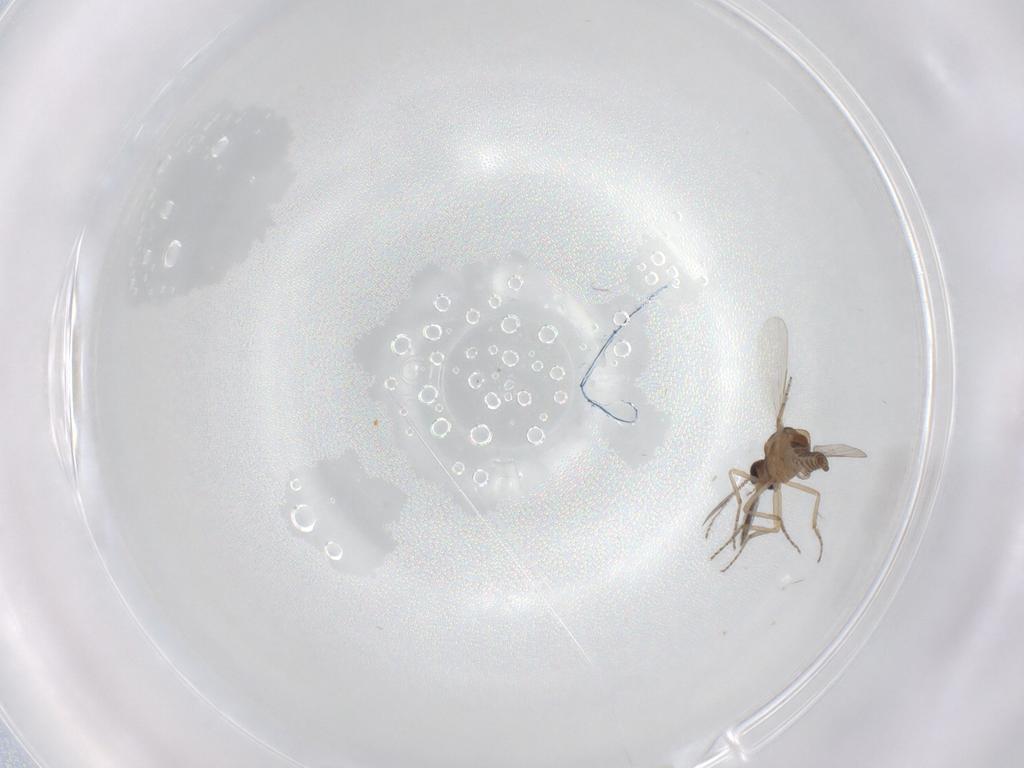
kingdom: Animalia
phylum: Arthropoda
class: Insecta
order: Diptera
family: Ceratopogonidae
